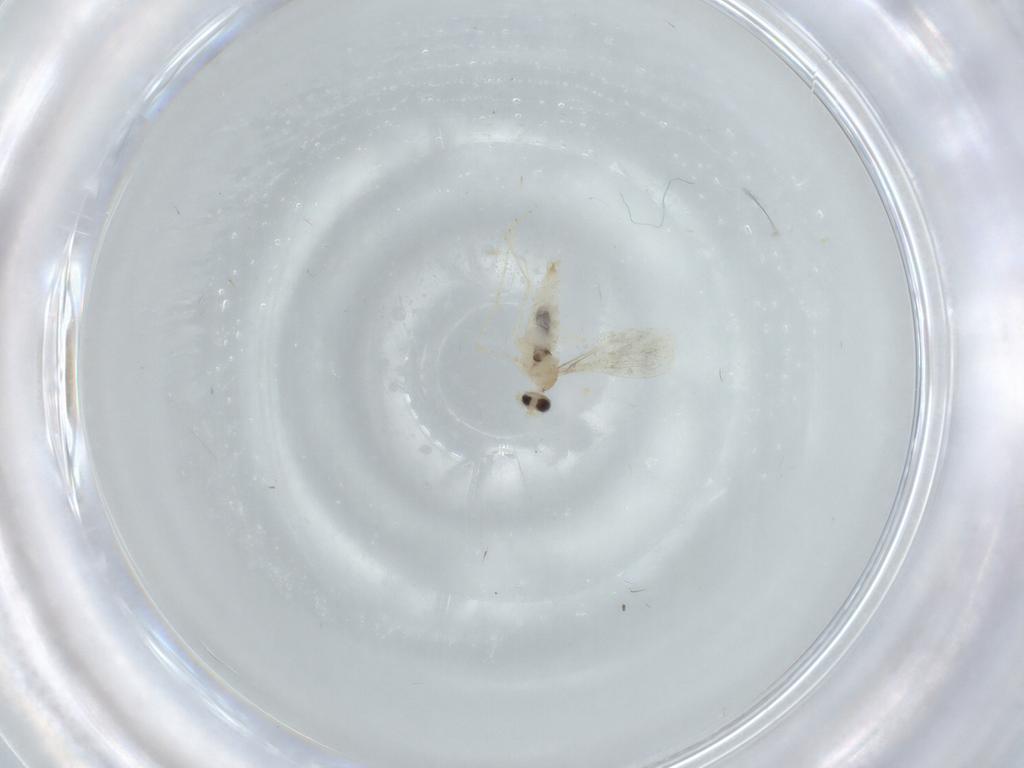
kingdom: Animalia
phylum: Arthropoda
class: Insecta
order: Diptera
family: Cecidomyiidae
